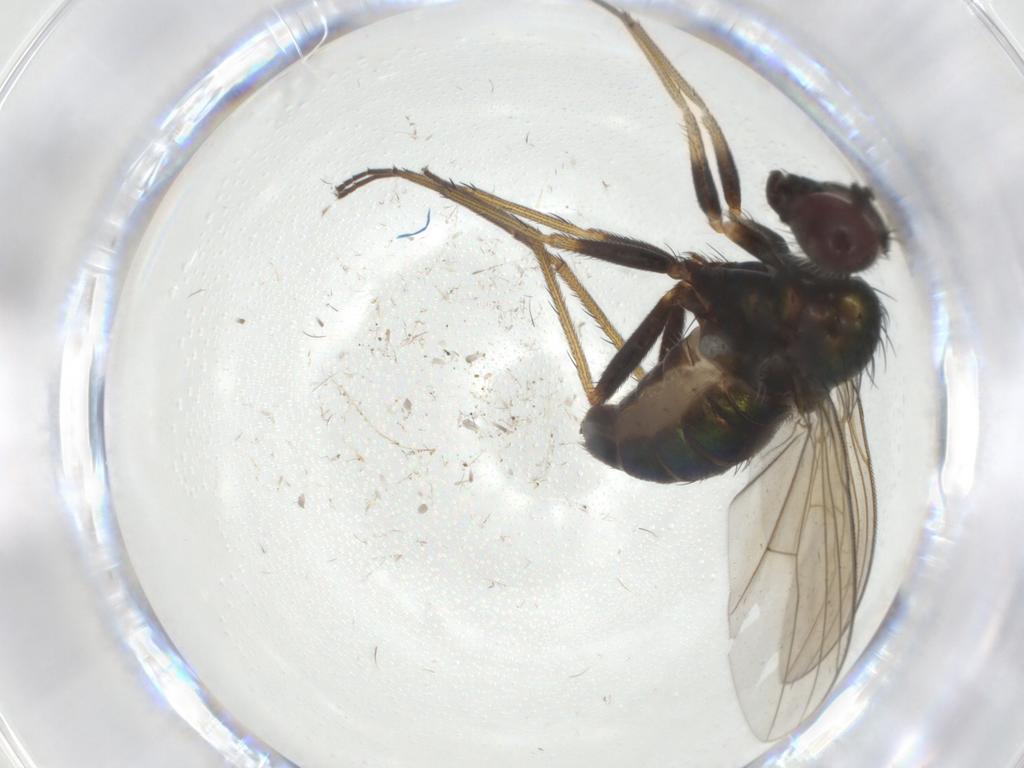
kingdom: Animalia
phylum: Arthropoda
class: Insecta
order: Diptera
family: Dolichopodidae
